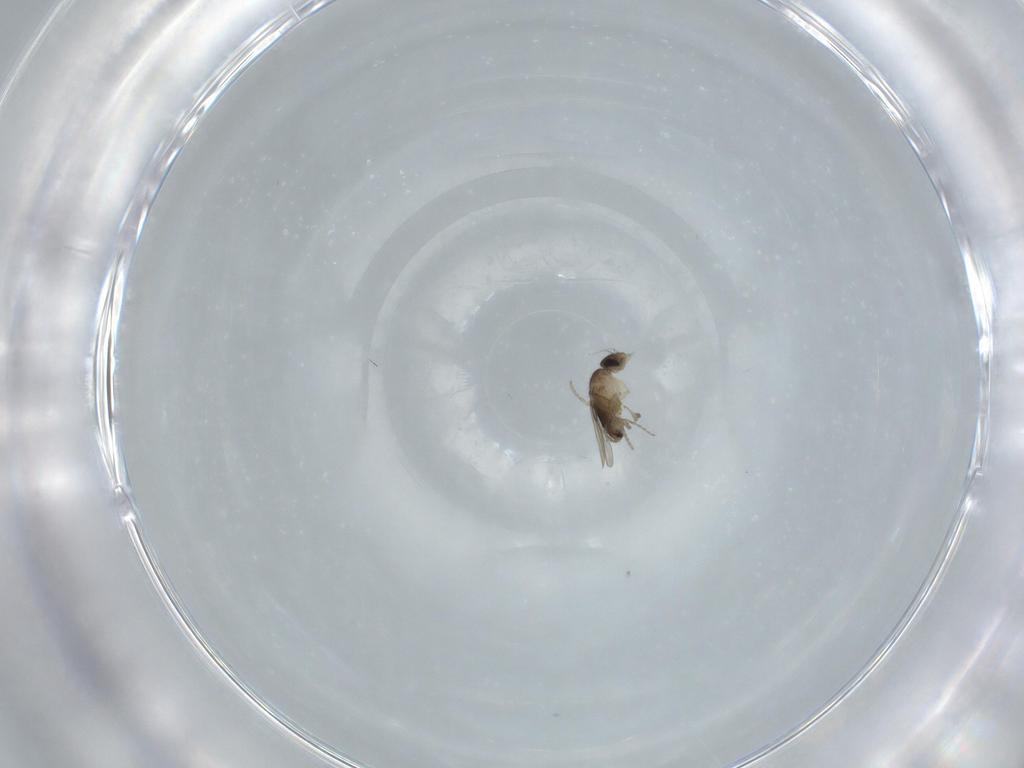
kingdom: Animalia
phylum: Arthropoda
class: Insecta
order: Diptera
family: Phoridae
